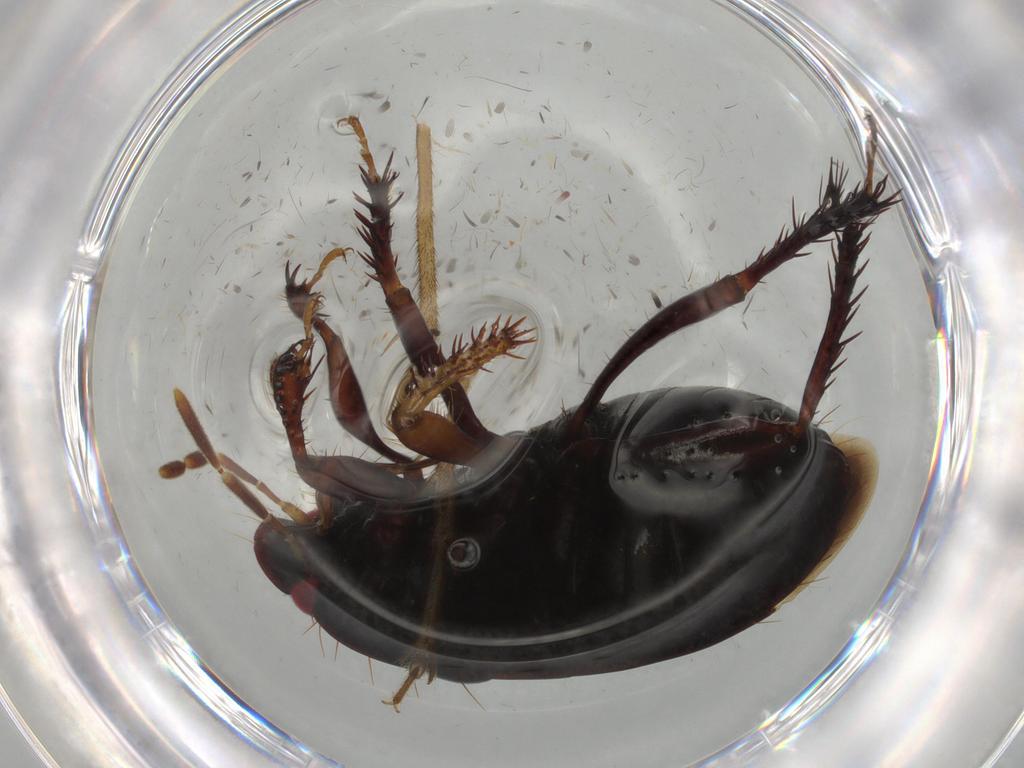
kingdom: Animalia
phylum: Arthropoda
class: Insecta
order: Hemiptera
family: Cydnidae
